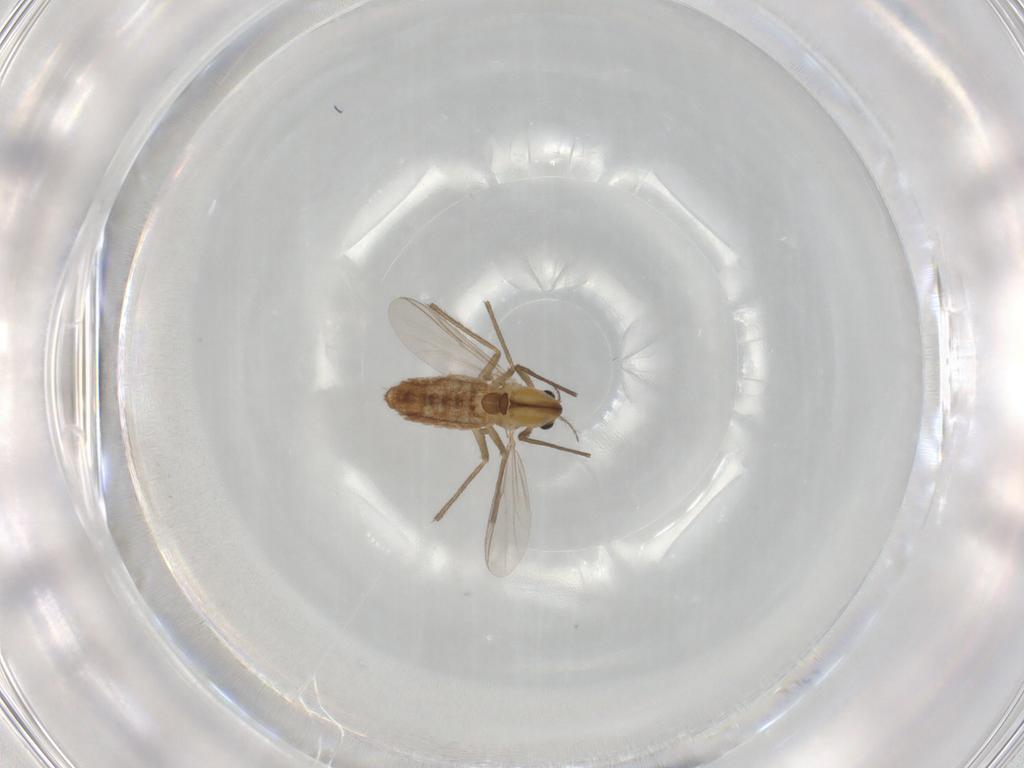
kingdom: Animalia
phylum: Arthropoda
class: Insecta
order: Diptera
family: Chironomidae
